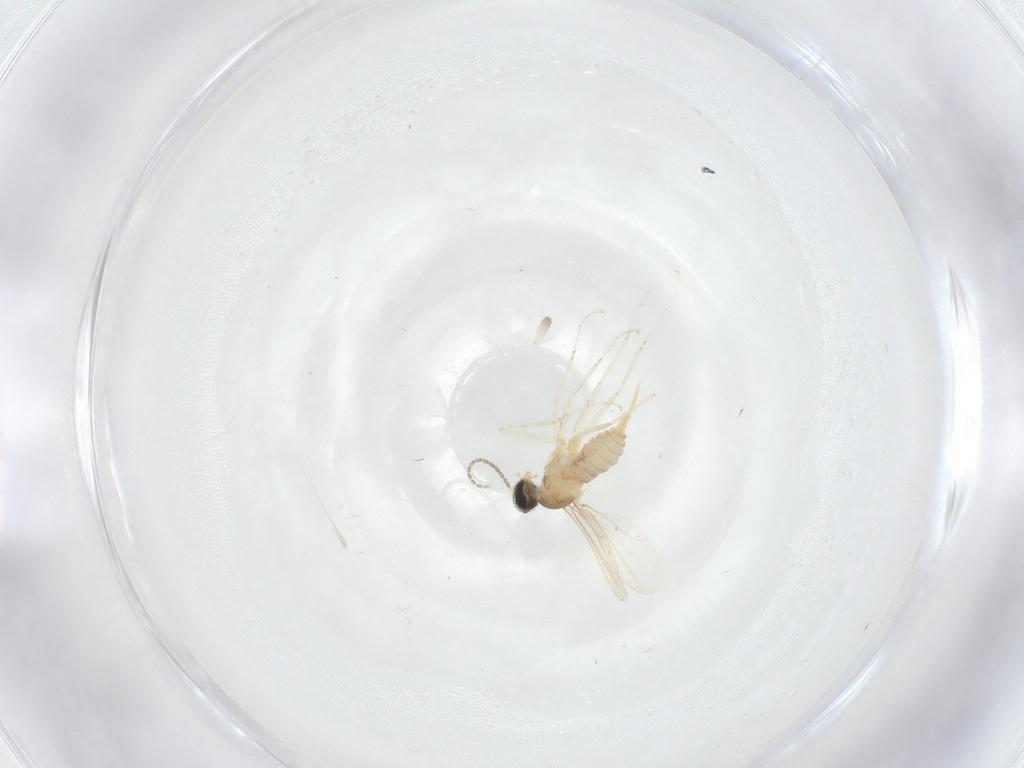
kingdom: Animalia
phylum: Arthropoda
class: Insecta
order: Diptera
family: Cecidomyiidae
